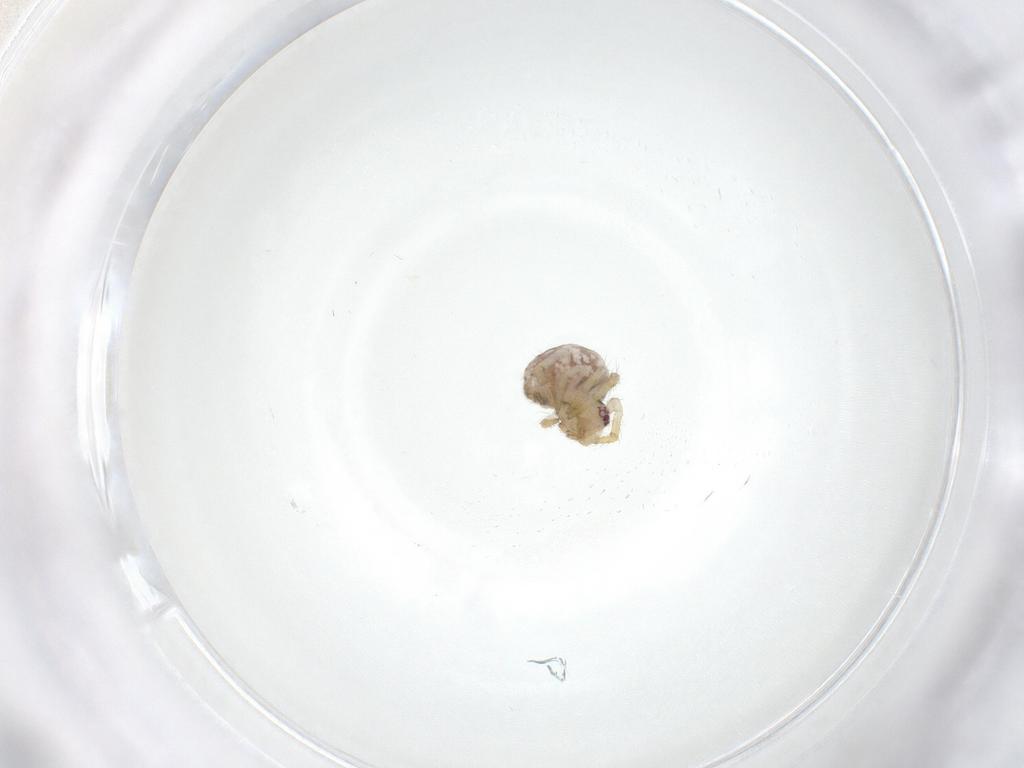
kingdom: Animalia
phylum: Arthropoda
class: Arachnida
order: Araneae
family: Theridiidae
